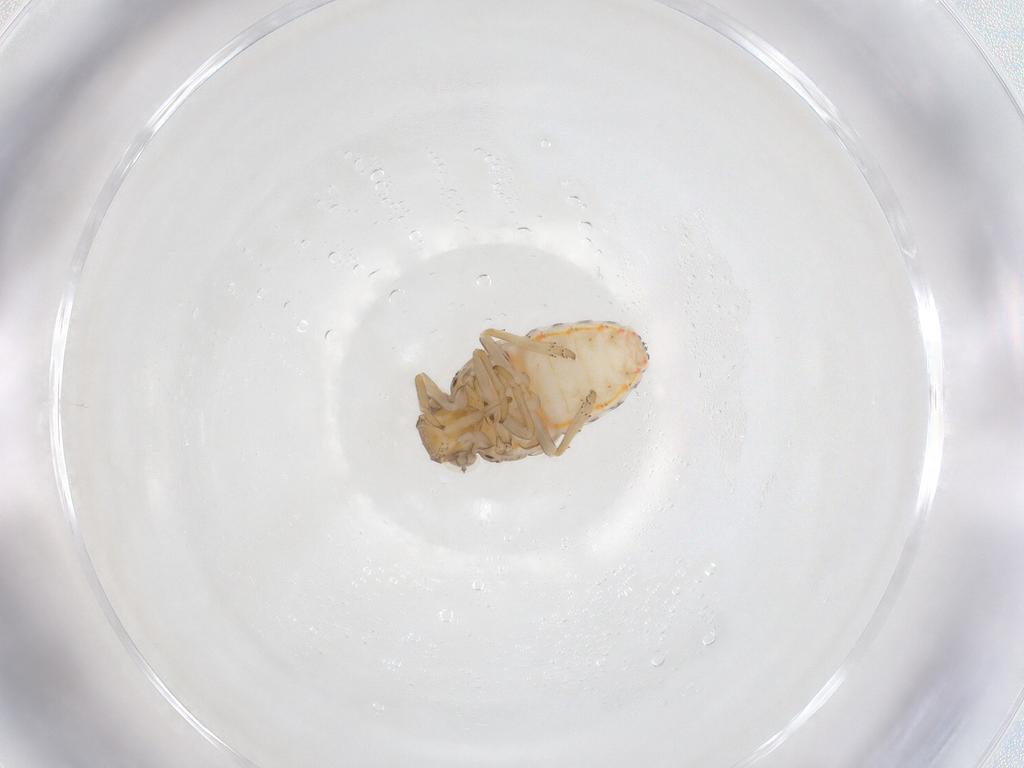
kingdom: Animalia
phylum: Arthropoda
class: Insecta
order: Hemiptera
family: Issidae
